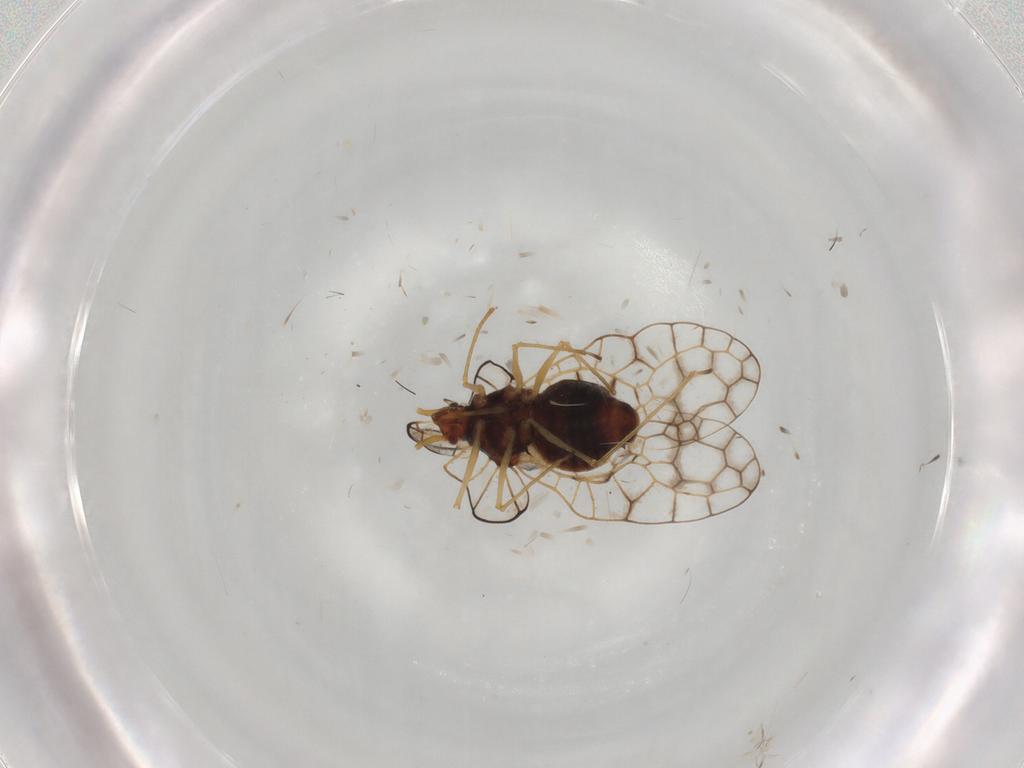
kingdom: Animalia
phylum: Arthropoda
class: Insecta
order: Hemiptera
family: Tingidae
